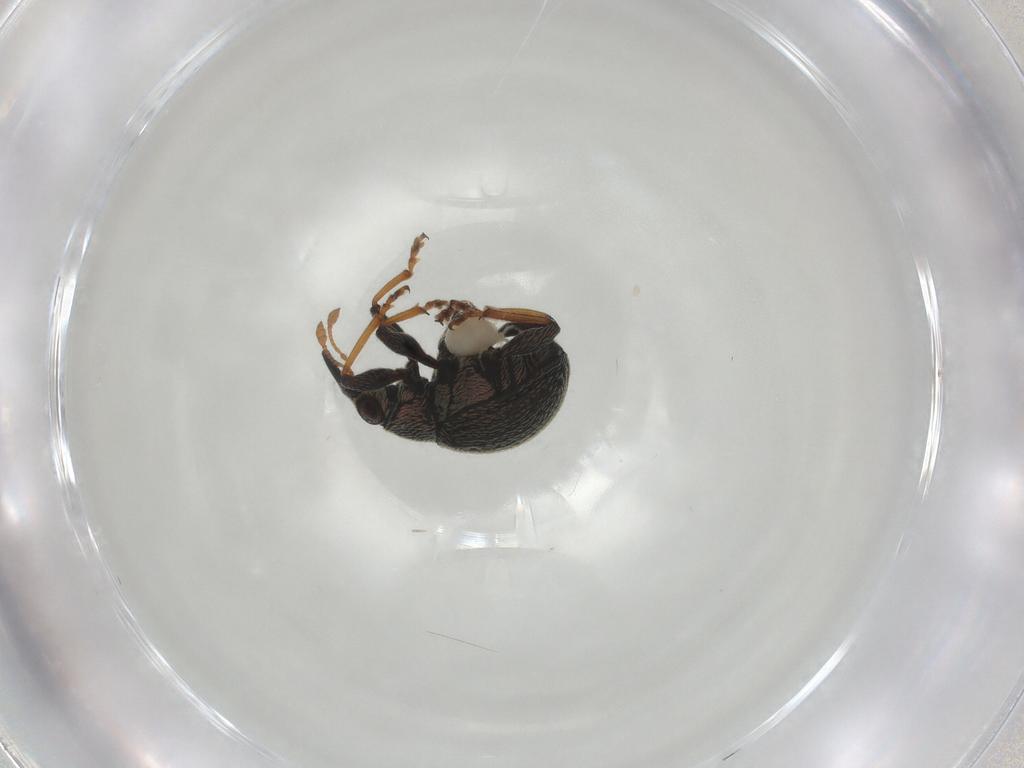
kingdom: Animalia
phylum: Arthropoda
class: Insecta
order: Coleoptera
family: Brentidae
